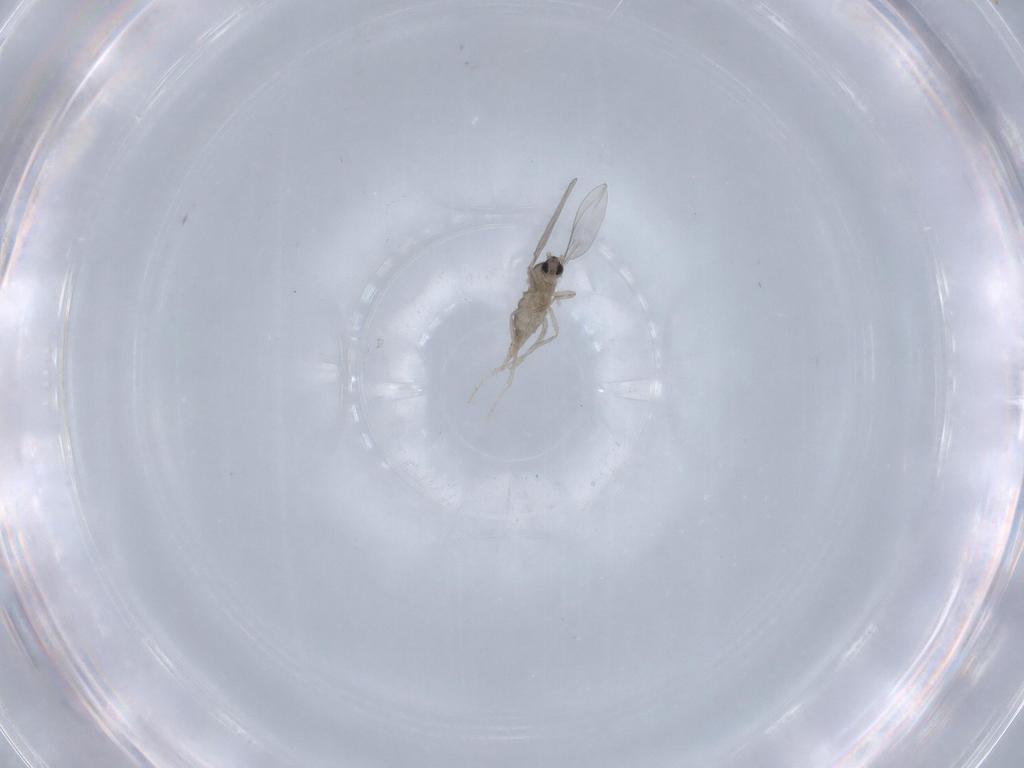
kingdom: Animalia
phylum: Arthropoda
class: Insecta
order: Diptera
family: Cecidomyiidae
